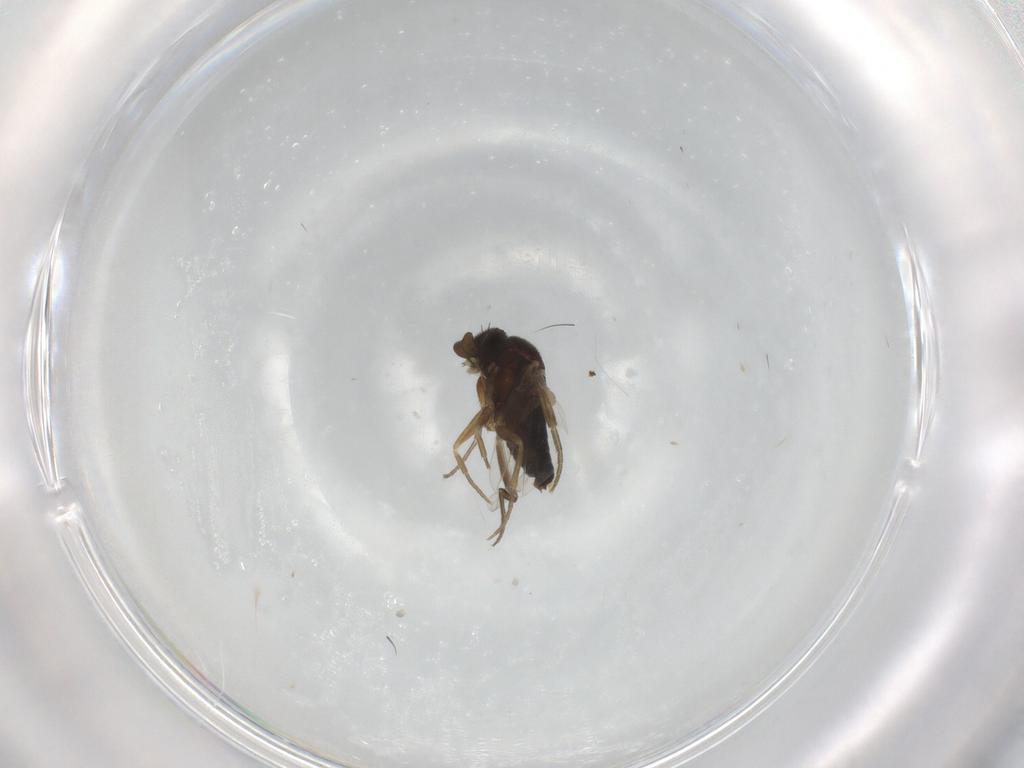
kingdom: Animalia
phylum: Arthropoda
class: Insecta
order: Diptera
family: Phoridae
